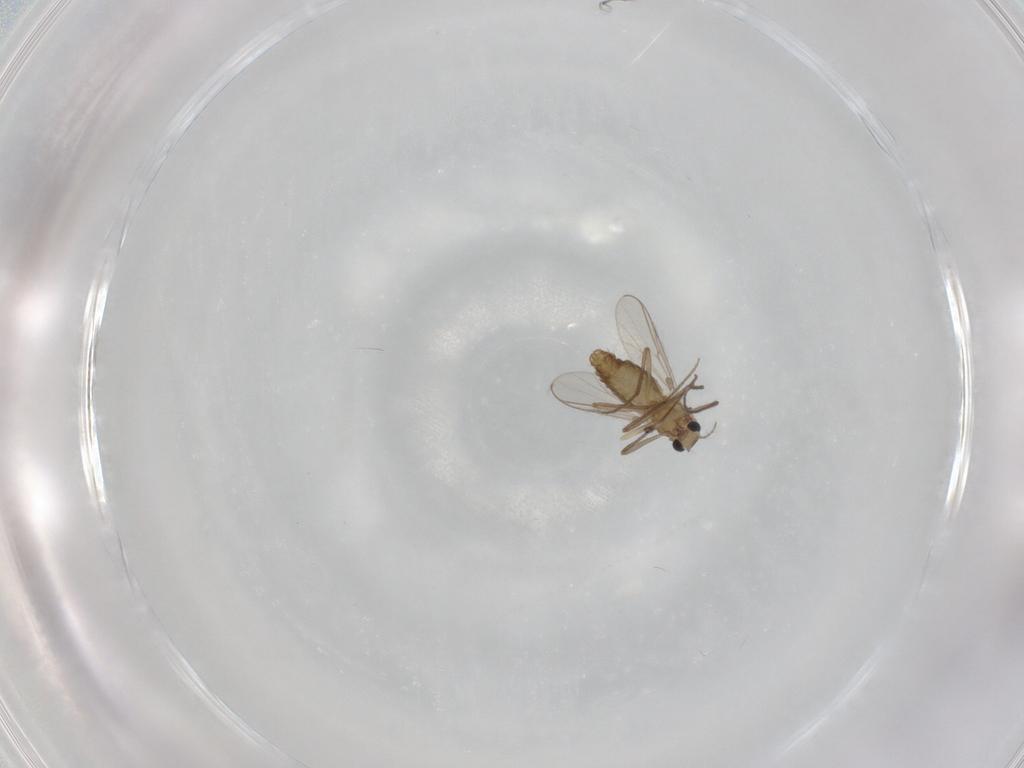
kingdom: Animalia
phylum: Arthropoda
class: Insecta
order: Diptera
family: Chironomidae
